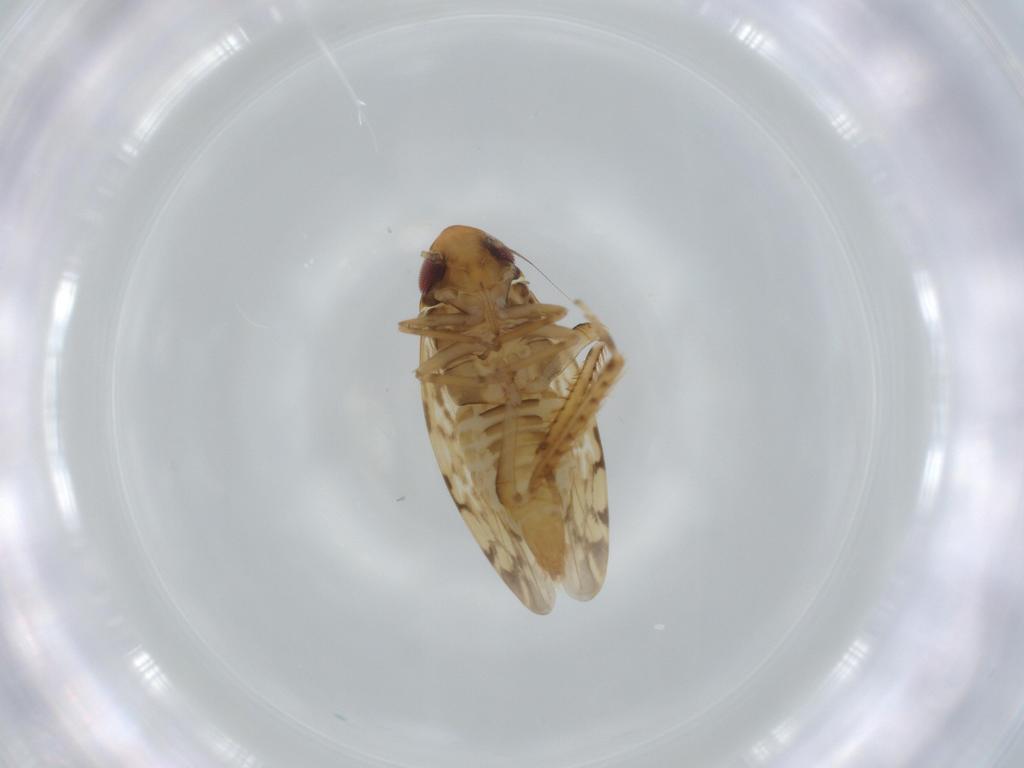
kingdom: Animalia
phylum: Arthropoda
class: Insecta
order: Hemiptera
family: Cicadellidae
